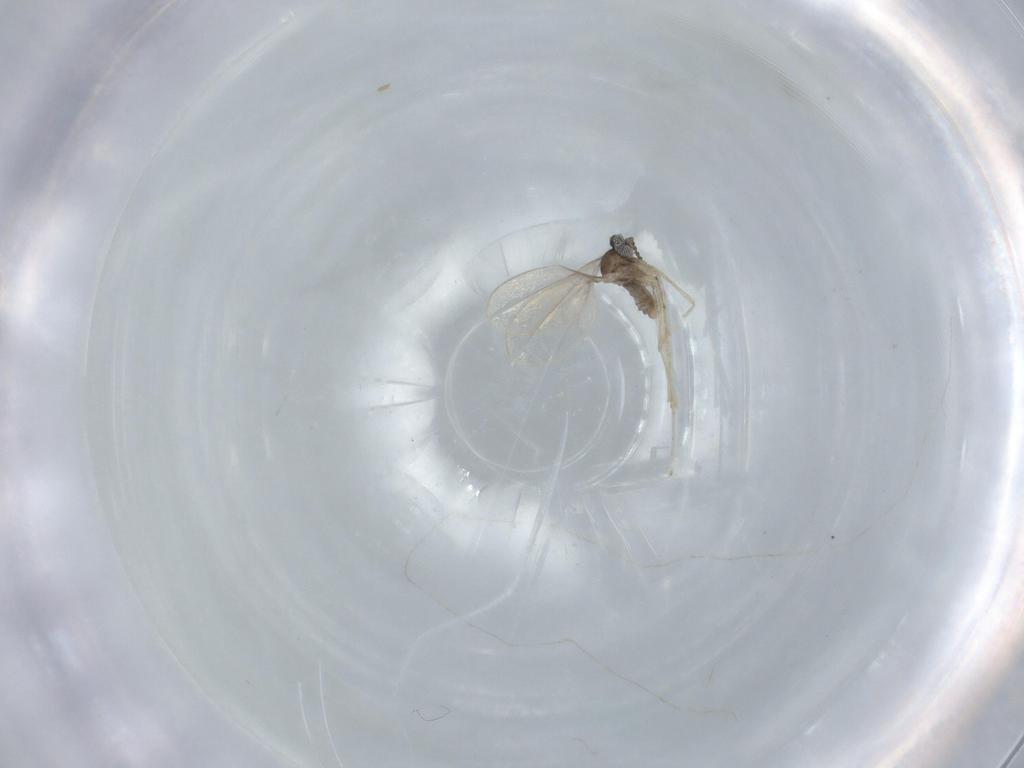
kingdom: Animalia
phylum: Arthropoda
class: Insecta
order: Diptera
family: Cecidomyiidae
